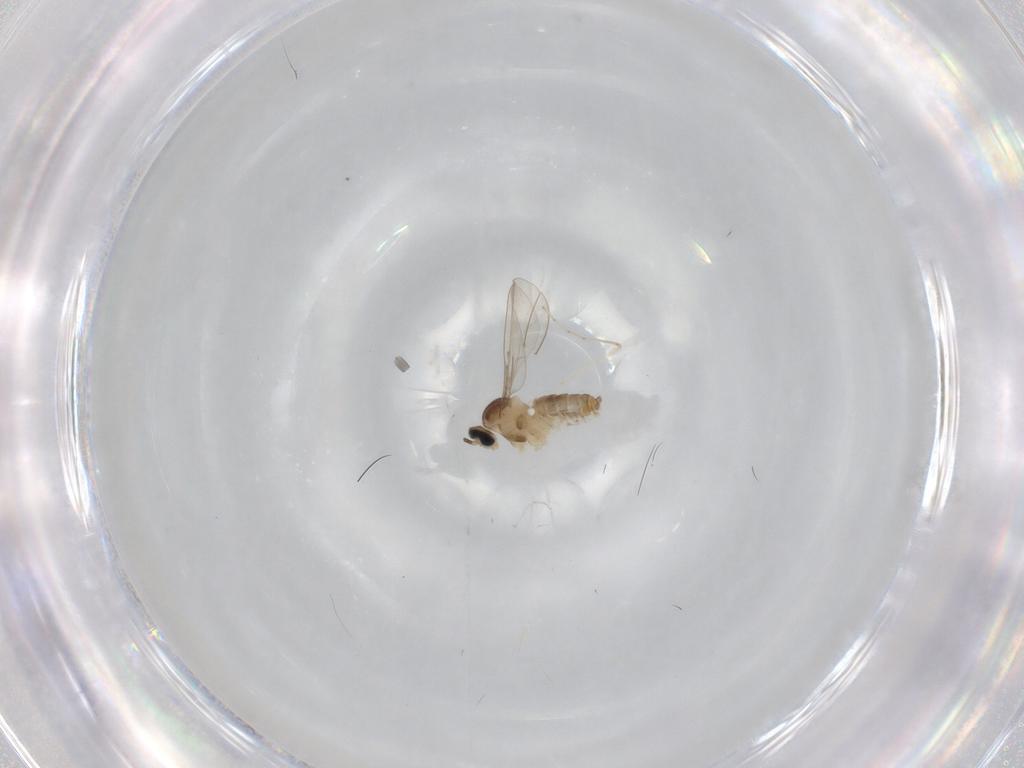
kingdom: Animalia
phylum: Arthropoda
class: Insecta
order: Diptera
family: Cecidomyiidae
